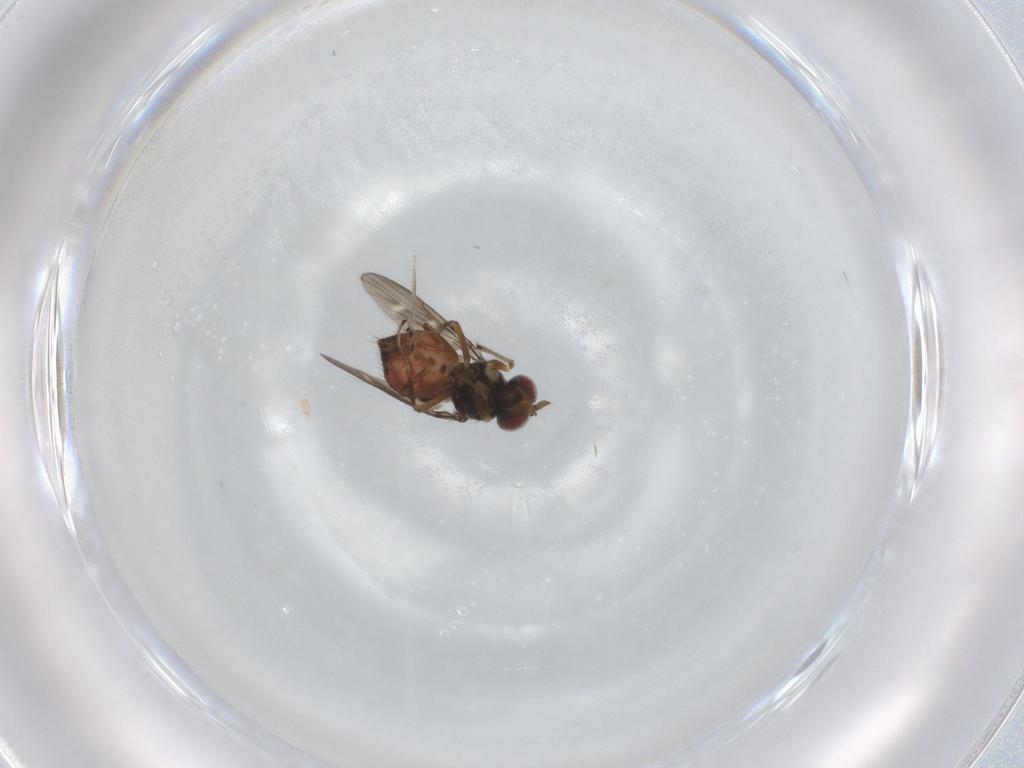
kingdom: Animalia
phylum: Arthropoda
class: Insecta
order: Diptera
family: Ephydridae
